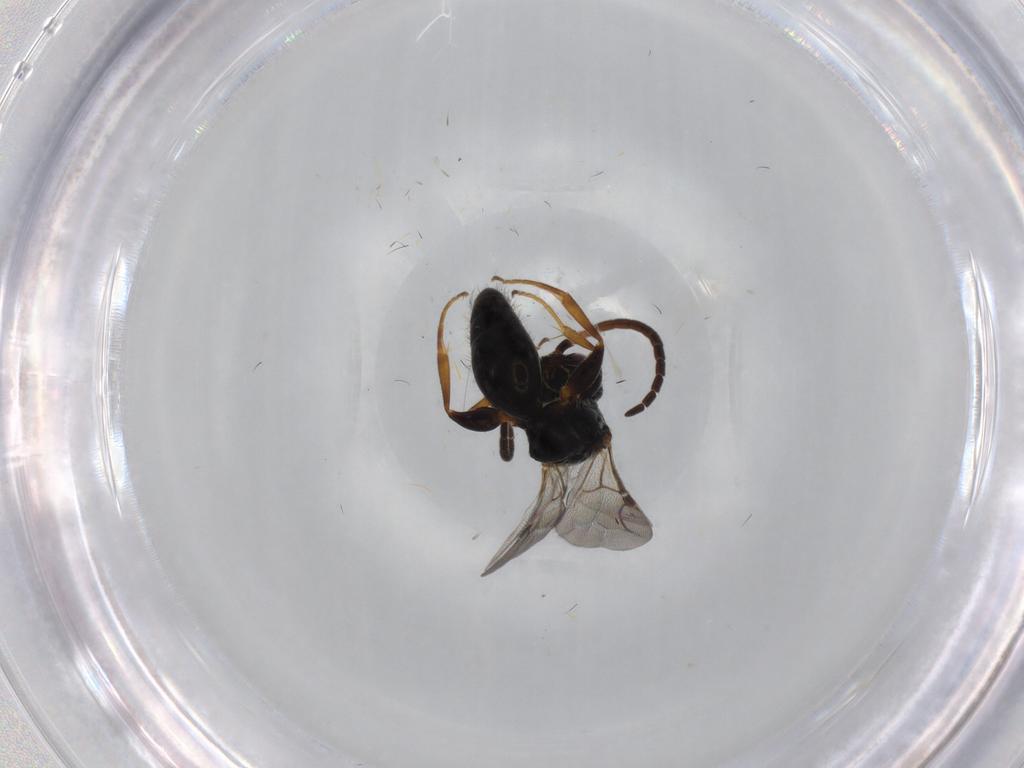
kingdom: Animalia
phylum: Arthropoda
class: Insecta
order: Hymenoptera
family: Bethylidae
